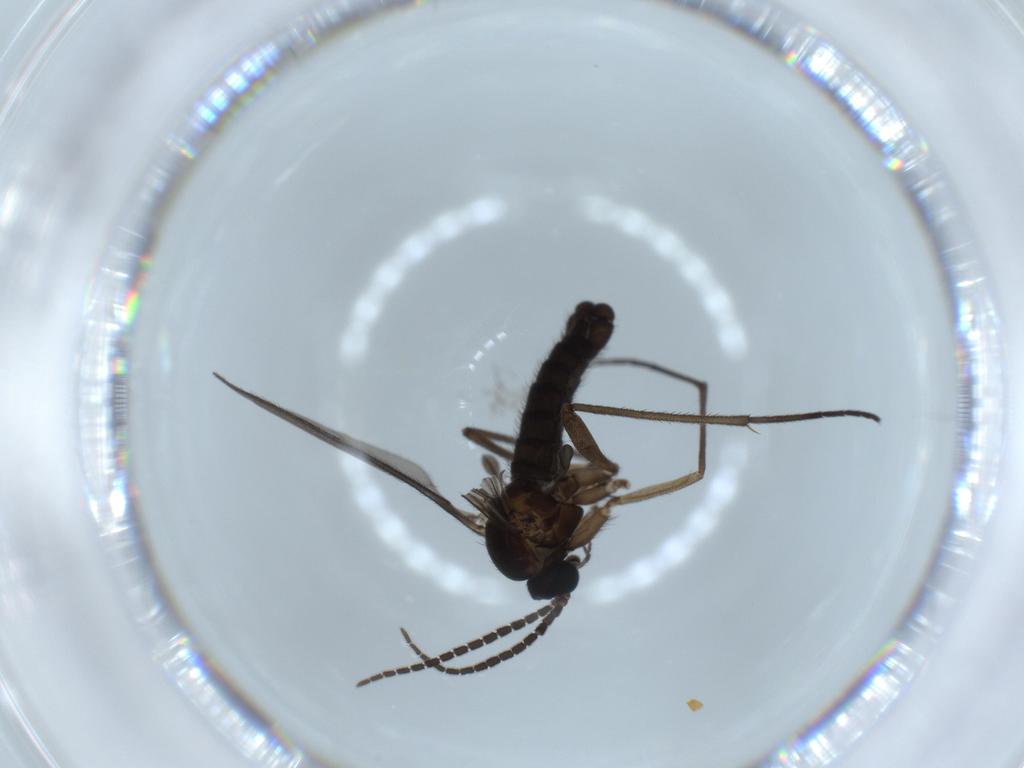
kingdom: Animalia
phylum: Arthropoda
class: Insecta
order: Diptera
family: Sciaridae
